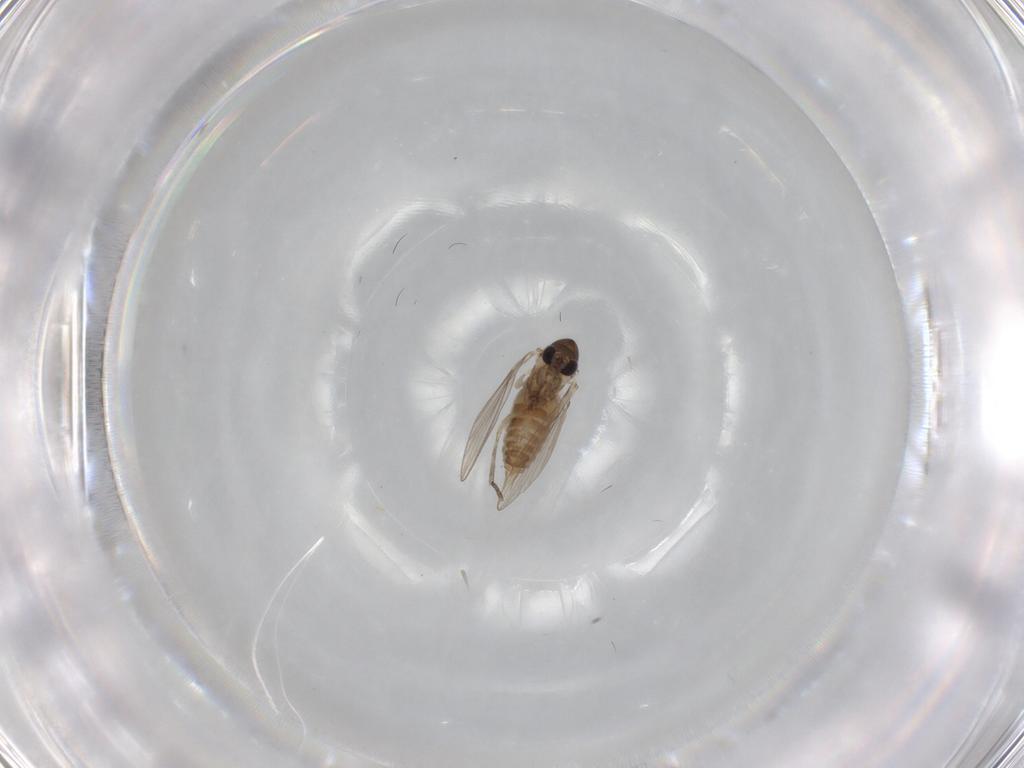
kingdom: Animalia
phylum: Arthropoda
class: Insecta
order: Diptera
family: Psychodidae
